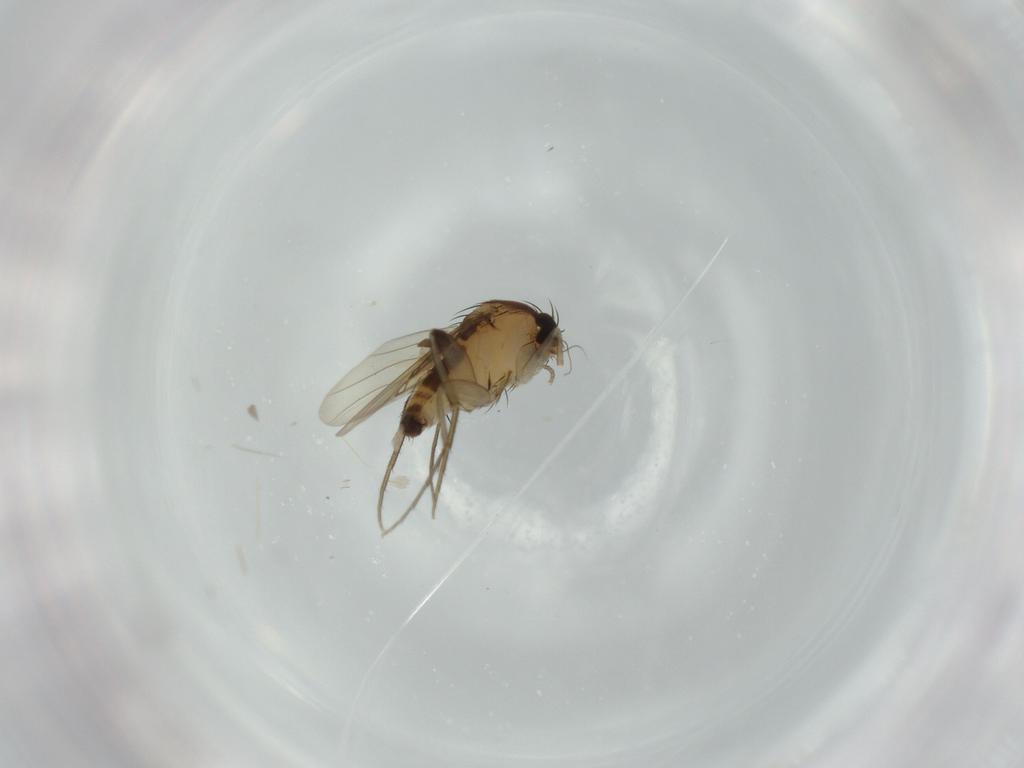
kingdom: Animalia
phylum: Arthropoda
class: Insecta
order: Diptera
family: Phoridae
